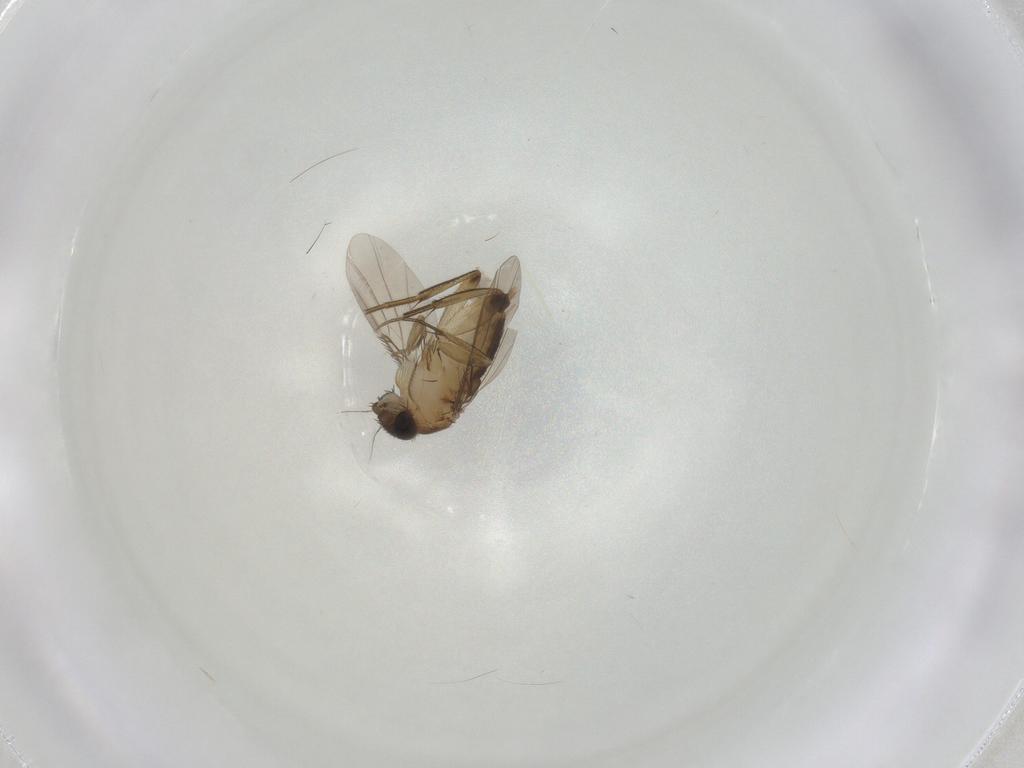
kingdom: Animalia
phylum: Arthropoda
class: Insecta
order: Diptera
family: Phoridae
